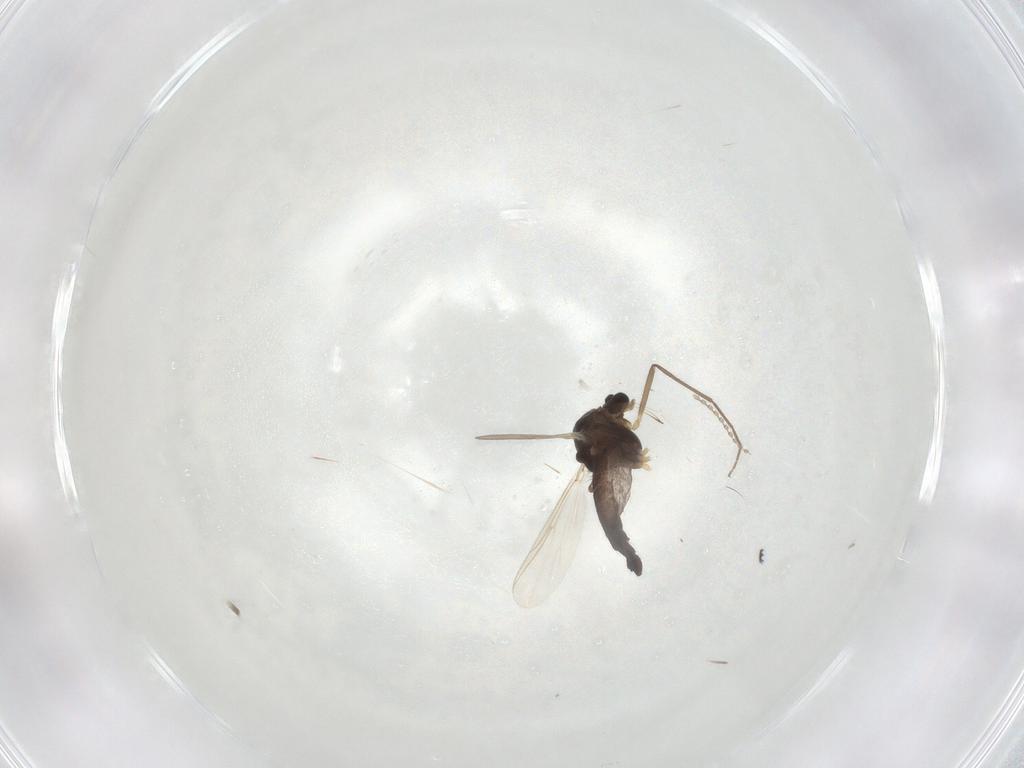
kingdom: Animalia
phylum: Arthropoda
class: Insecta
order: Diptera
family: Chironomidae
